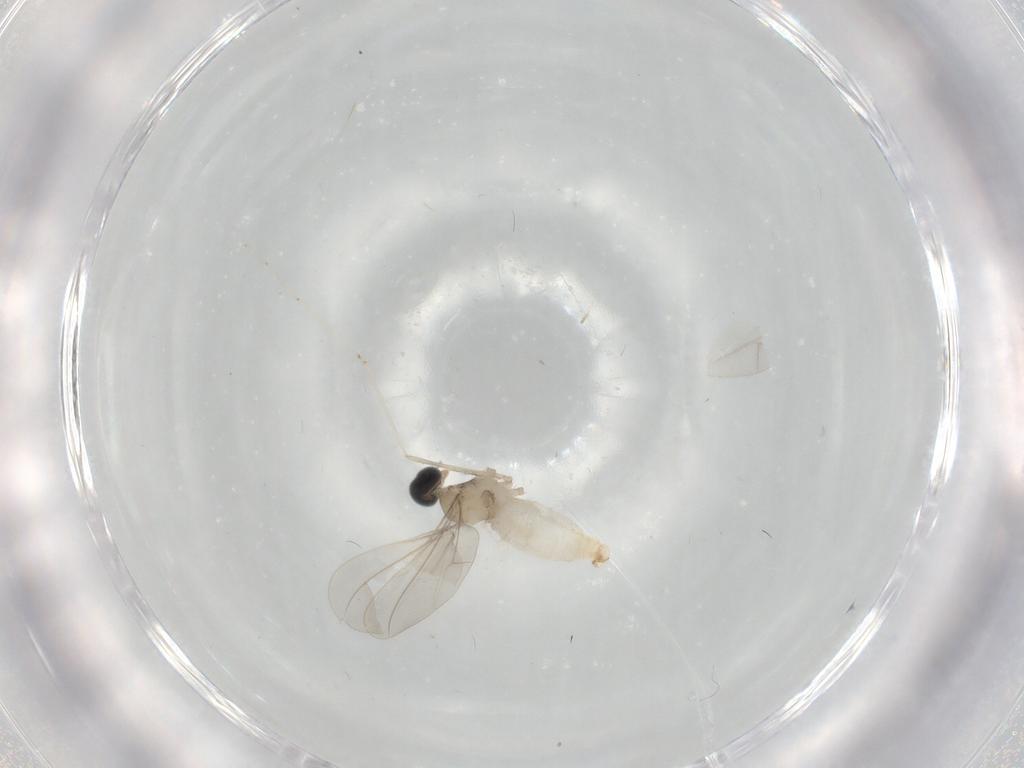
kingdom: Animalia
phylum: Arthropoda
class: Insecta
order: Diptera
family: Cecidomyiidae
